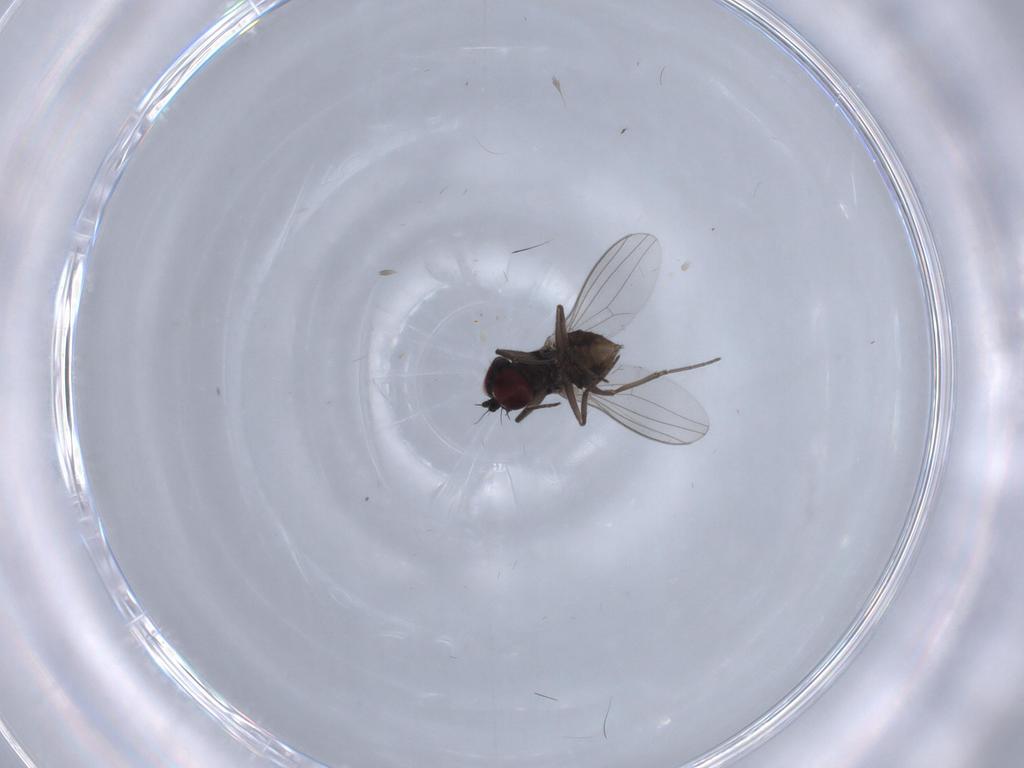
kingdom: Animalia
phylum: Arthropoda
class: Insecta
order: Diptera
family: Dolichopodidae
